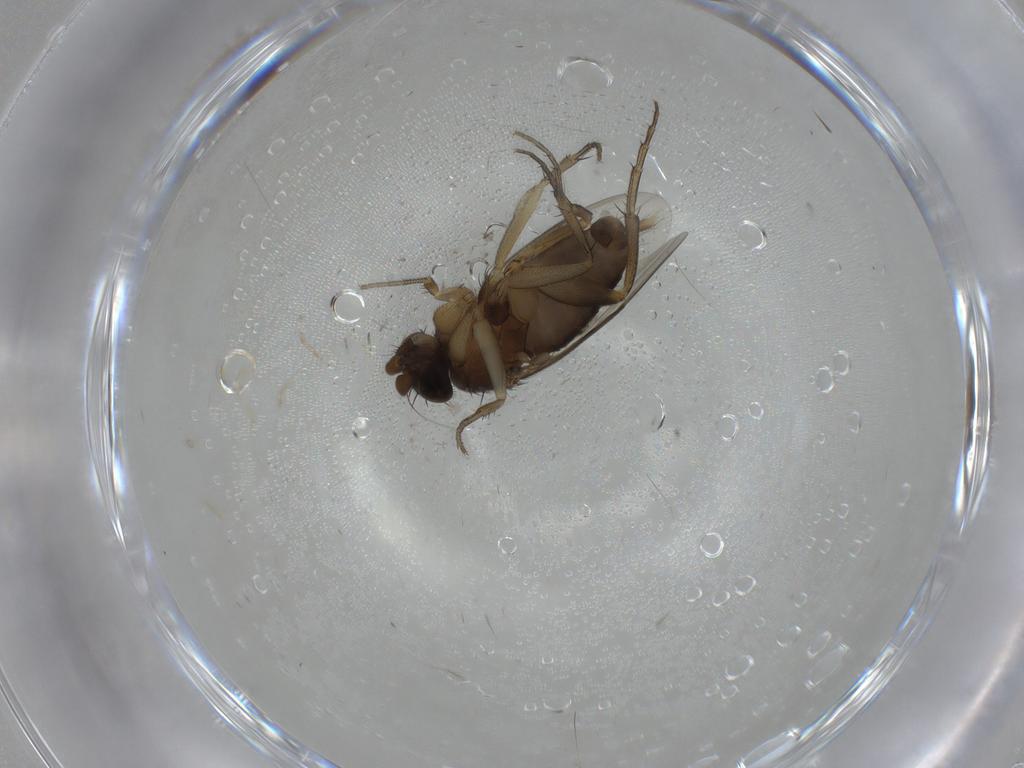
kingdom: Animalia
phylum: Arthropoda
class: Insecta
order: Diptera
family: Phoridae
